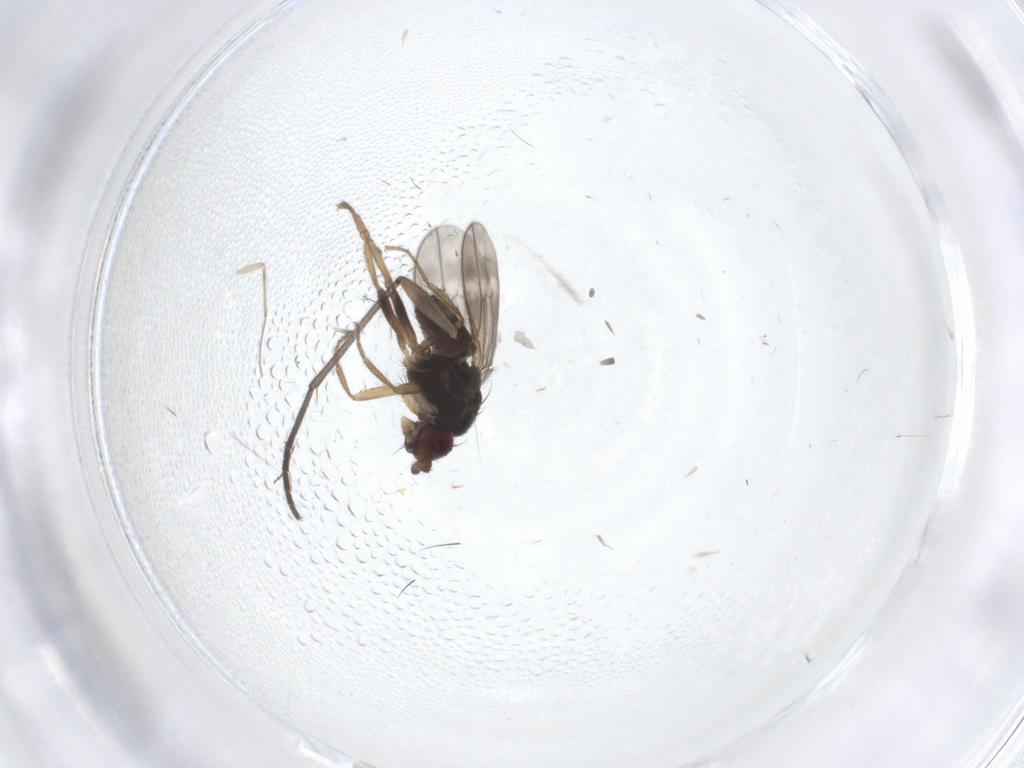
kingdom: Animalia
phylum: Arthropoda
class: Insecta
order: Diptera
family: Sphaeroceridae
